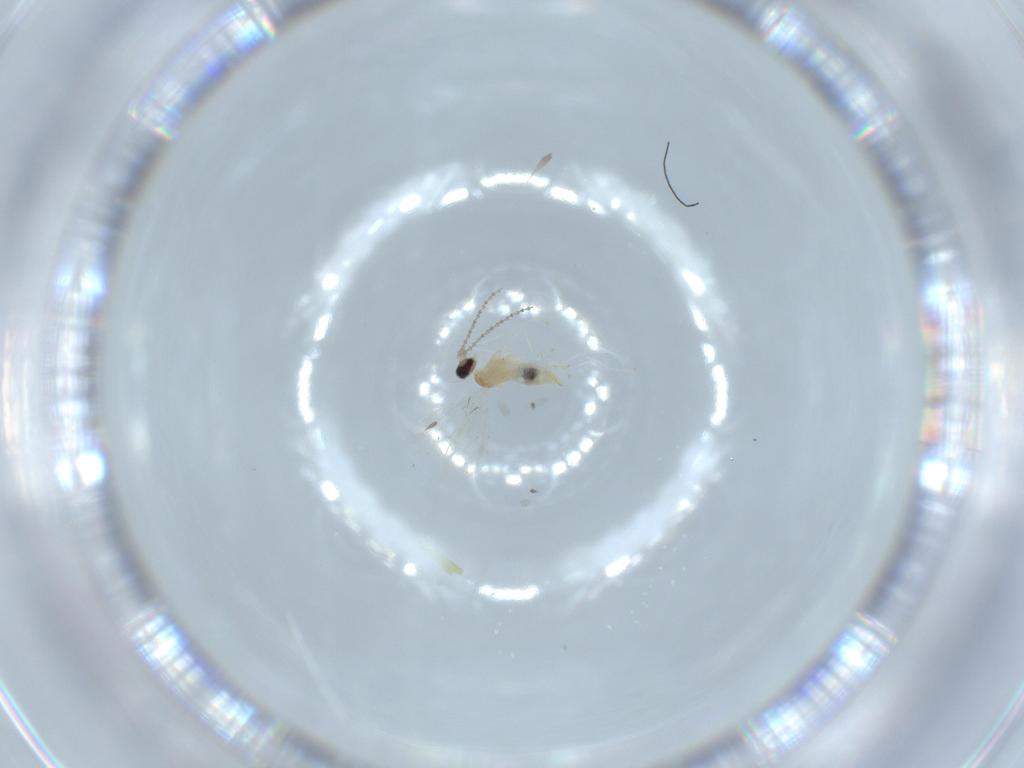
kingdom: Animalia
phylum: Arthropoda
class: Insecta
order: Diptera
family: Cecidomyiidae
